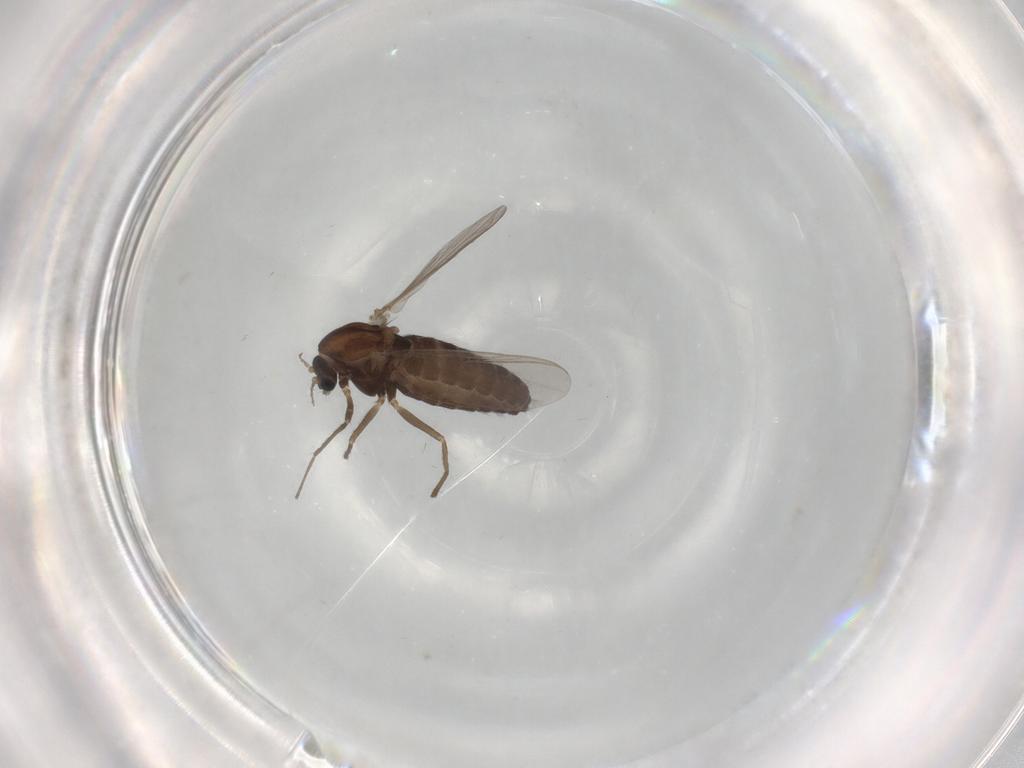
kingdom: Animalia
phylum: Arthropoda
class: Insecta
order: Diptera
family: Chironomidae
